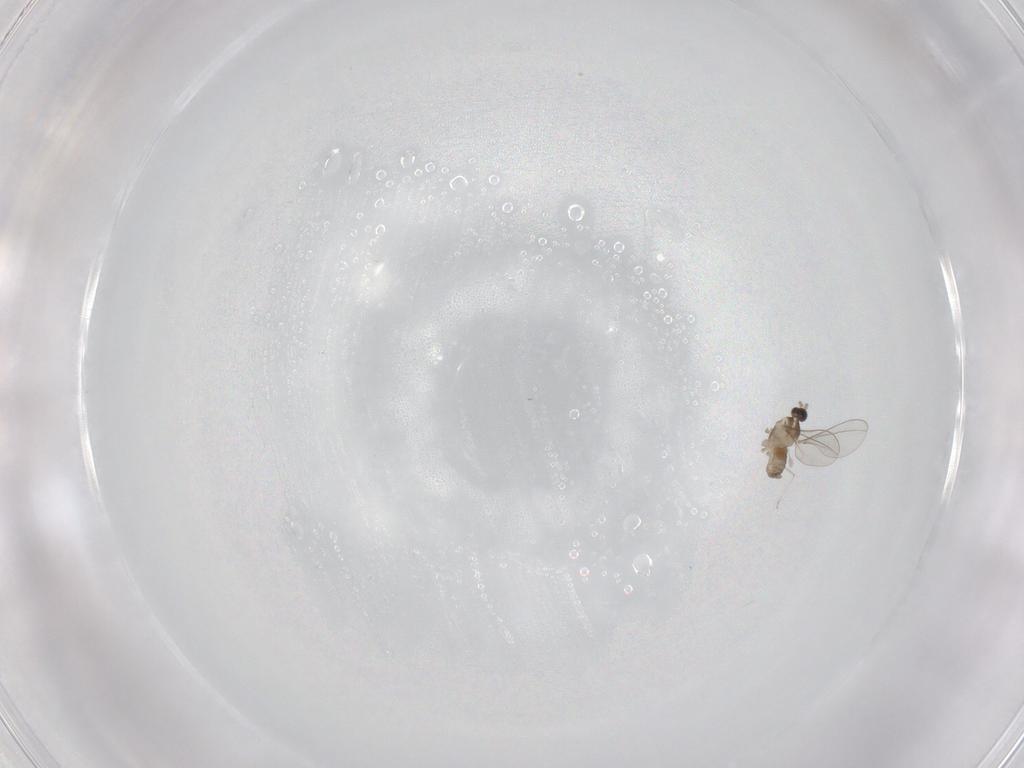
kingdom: Animalia
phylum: Arthropoda
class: Insecta
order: Diptera
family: Cecidomyiidae
